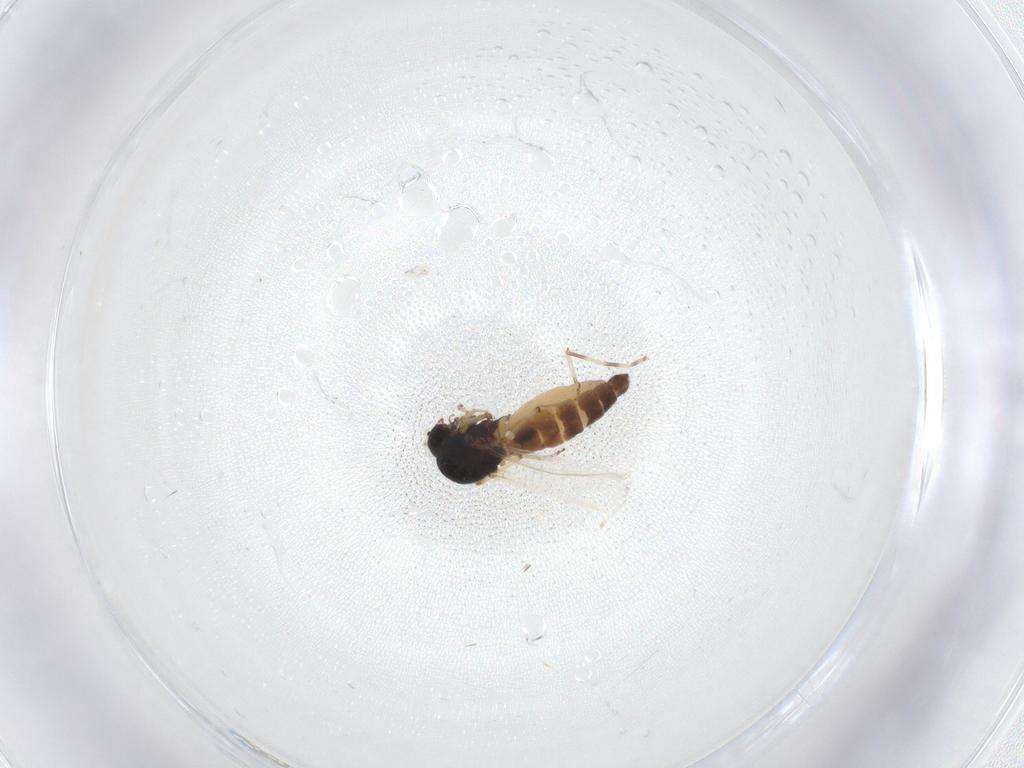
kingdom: Animalia
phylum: Arthropoda
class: Insecta
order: Diptera
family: Ceratopogonidae
